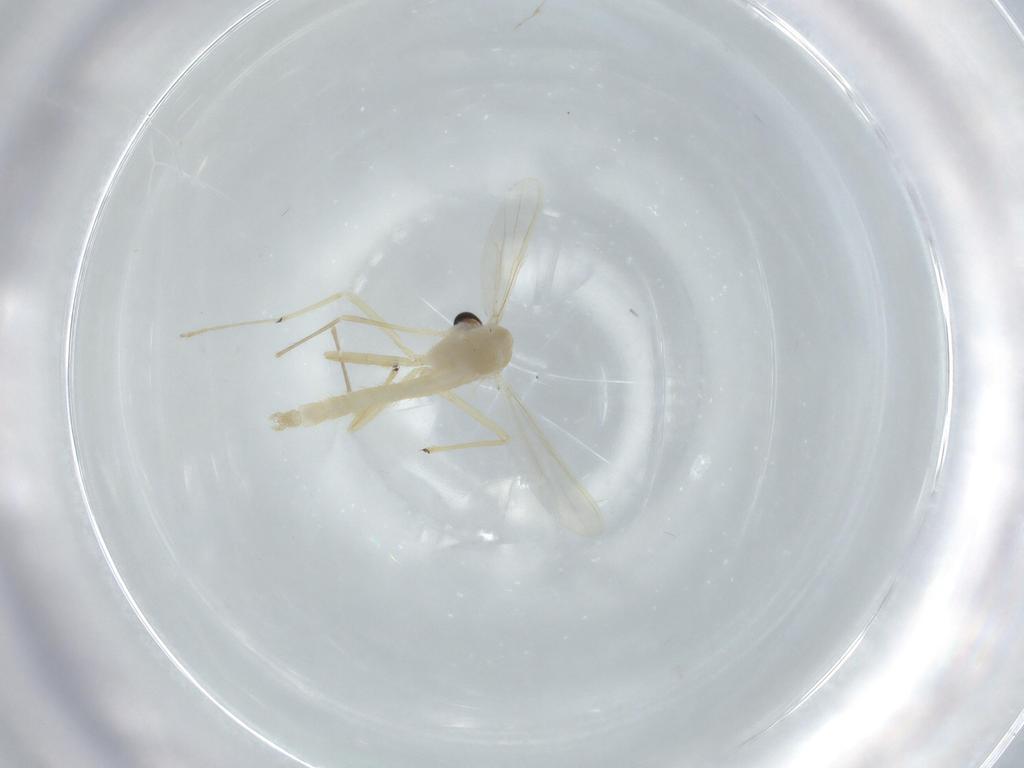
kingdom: Animalia
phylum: Arthropoda
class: Insecta
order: Diptera
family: Chironomidae
